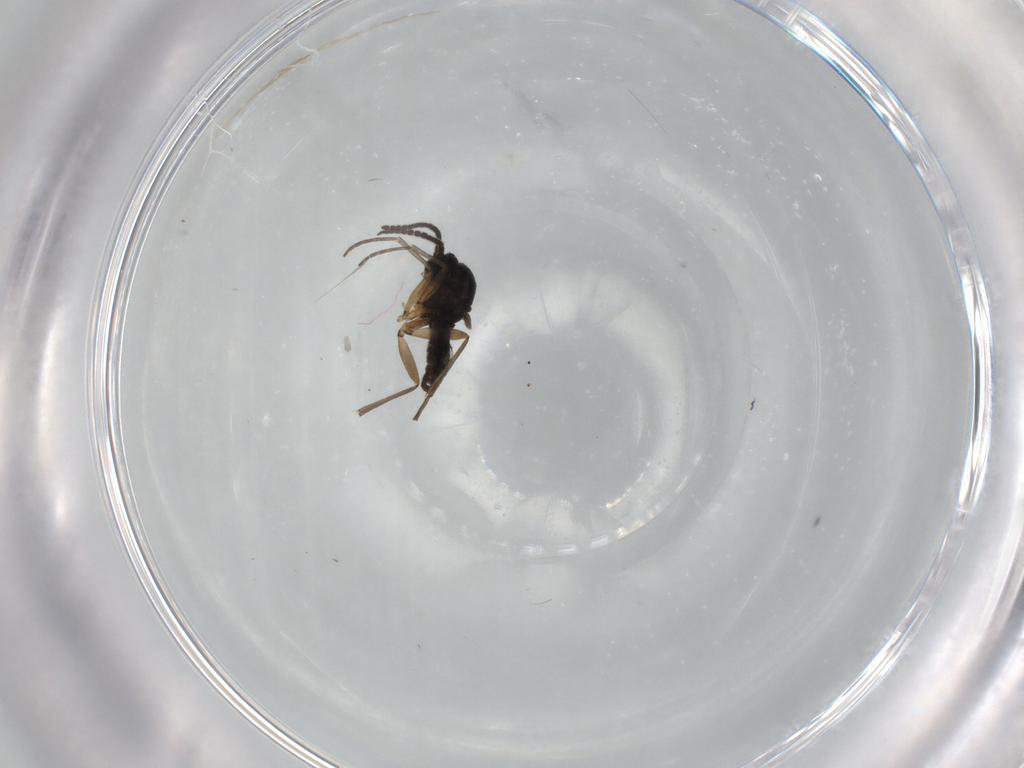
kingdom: Animalia
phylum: Arthropoda
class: Insecta
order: Diptera
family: Sciaridae
